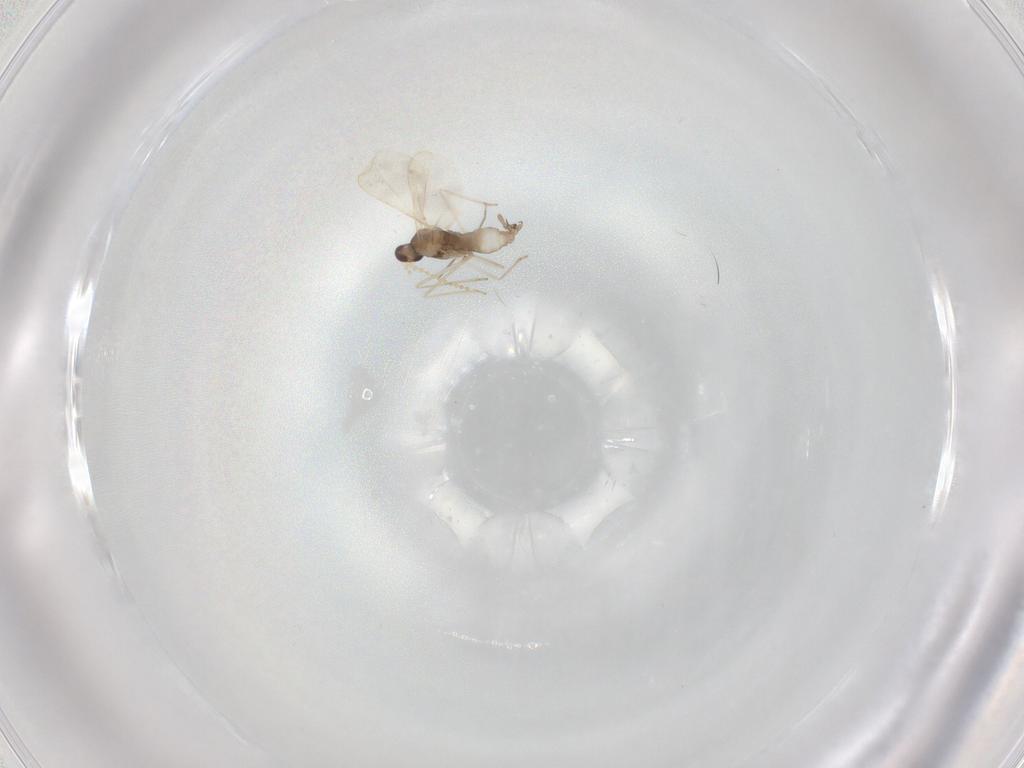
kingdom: Animalia
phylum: Arthropoda
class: Insecta
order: Diptera
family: Cecidomyiidae
